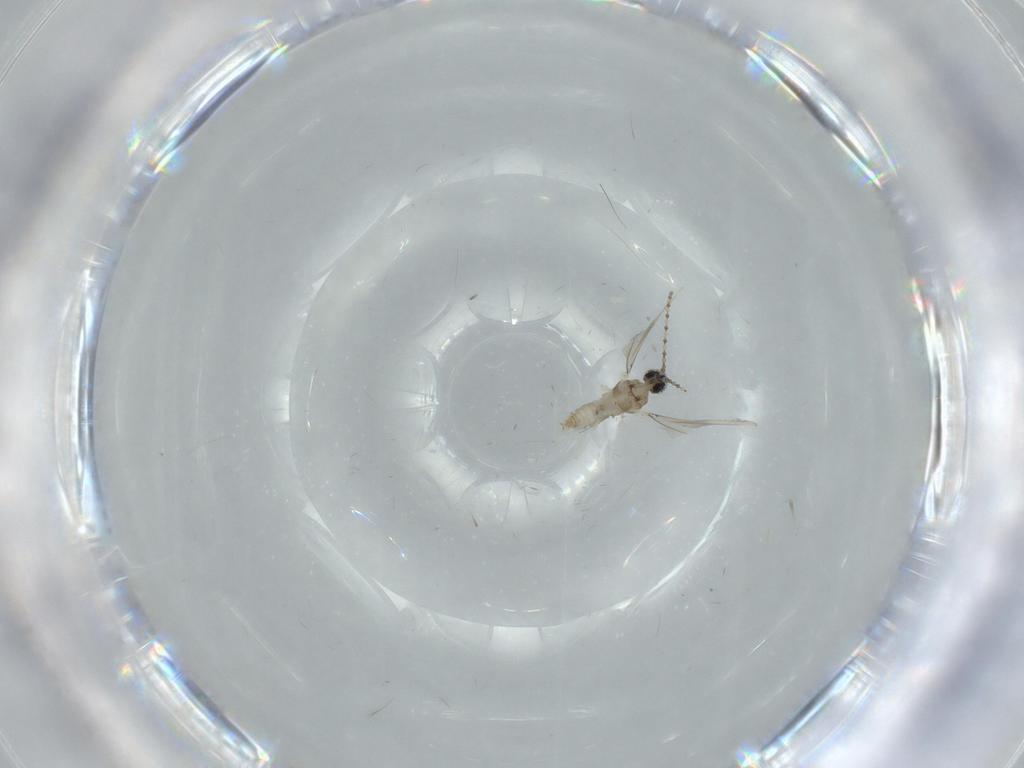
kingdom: Animalia
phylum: Arthropoda
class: Insecta
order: Diptera
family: Cecidomyiidae
